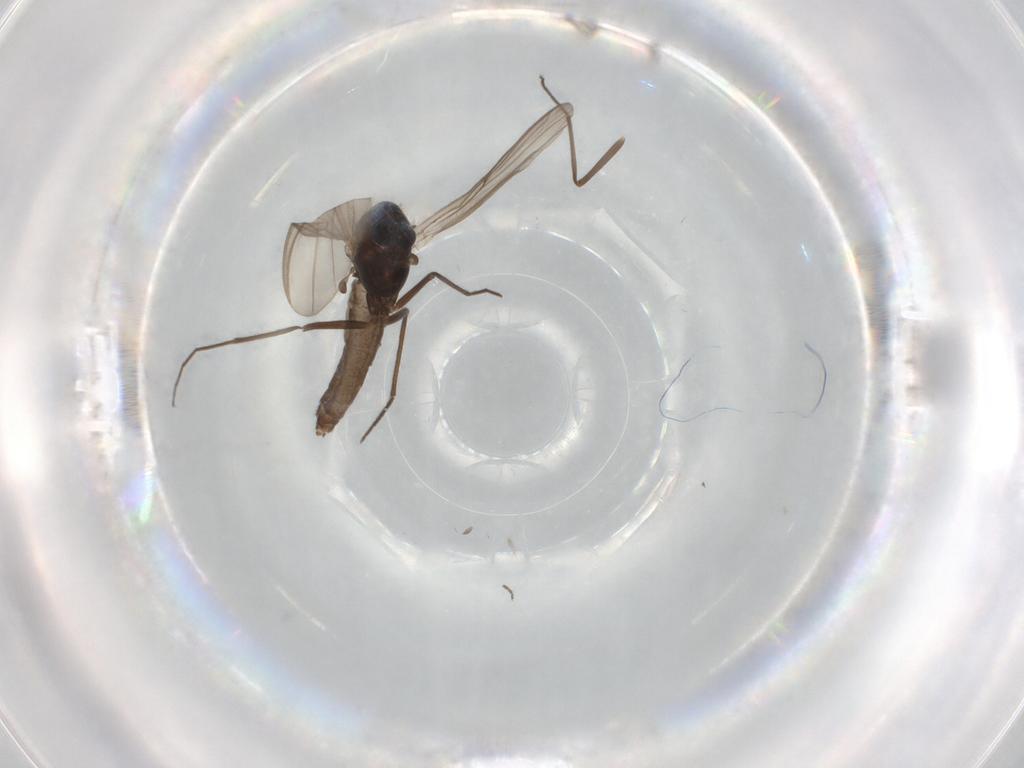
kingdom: Animalia
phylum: Arthropoda
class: Insecta
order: Diptera
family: Chironomidae
